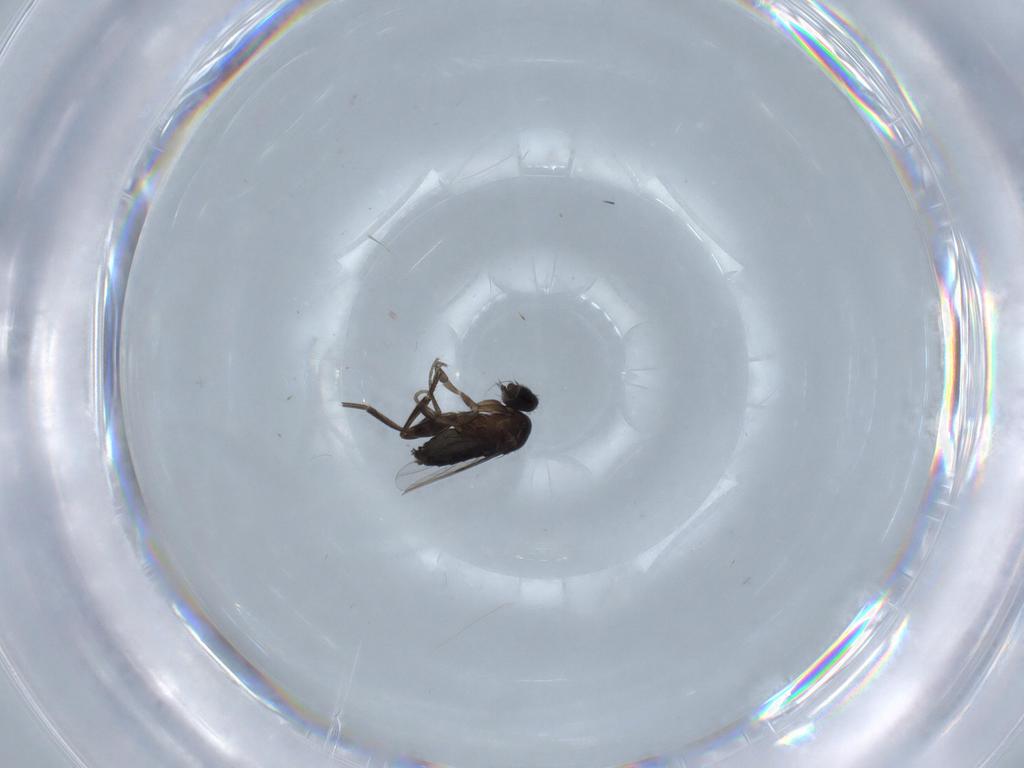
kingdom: Animalia
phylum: Arthropoda
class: Insecta
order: Diptera
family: Phoridae
